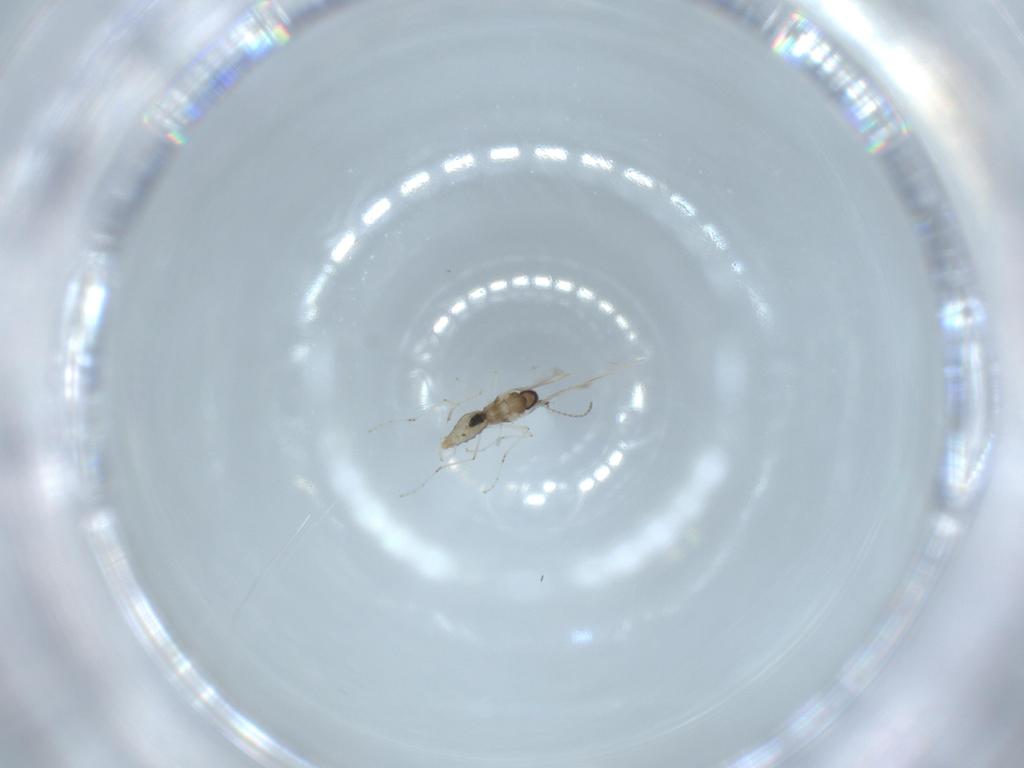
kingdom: Animalia
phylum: Arthropoda
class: Insecta
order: Diptera
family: Cecidomyiidae
